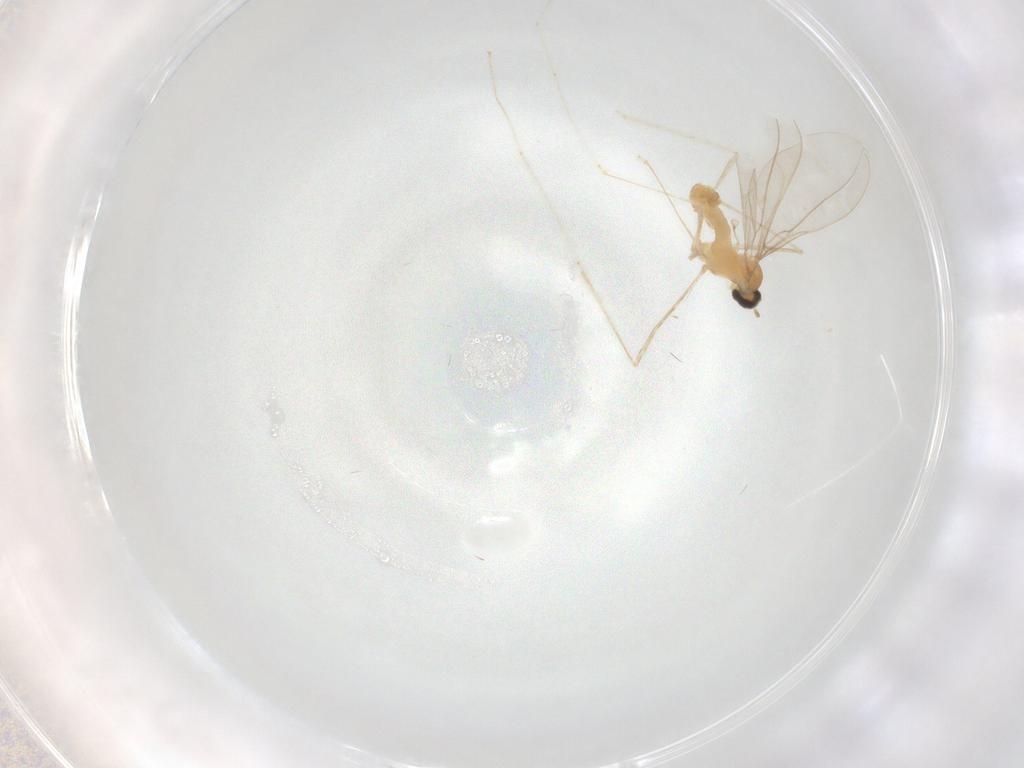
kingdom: Animalia
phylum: Arthropoda
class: Insecta
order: Diptera
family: Cecidomyiidae
